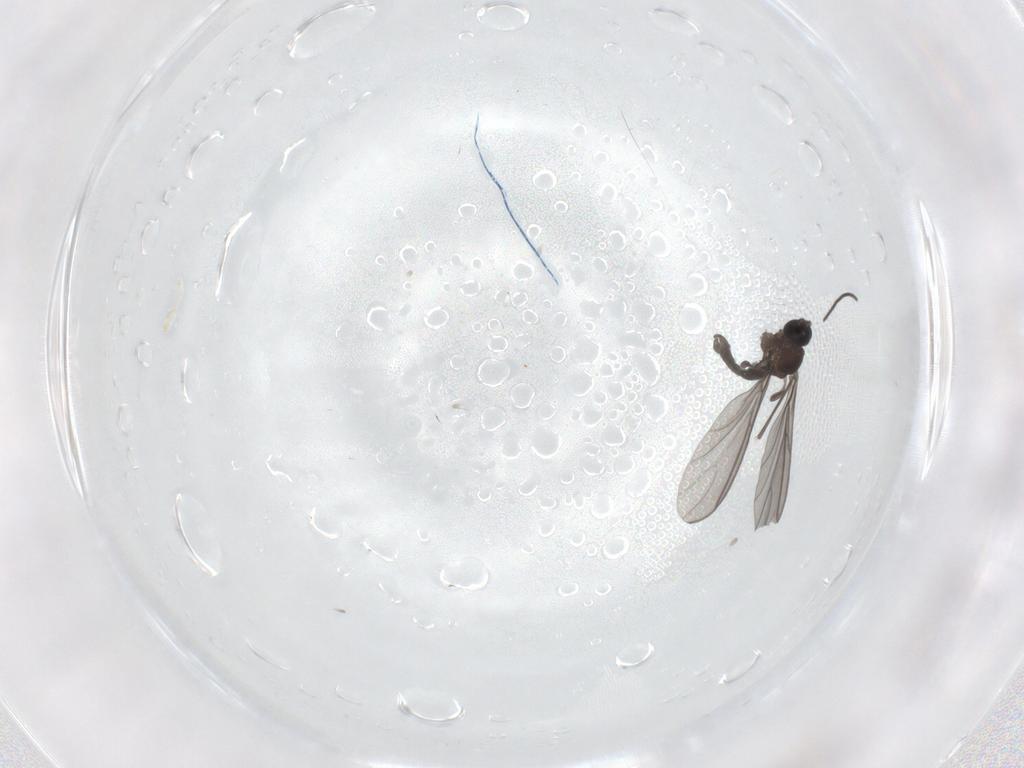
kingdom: Animalia
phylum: Arthropoda
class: Insecta
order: Diptera
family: Sciaridae
